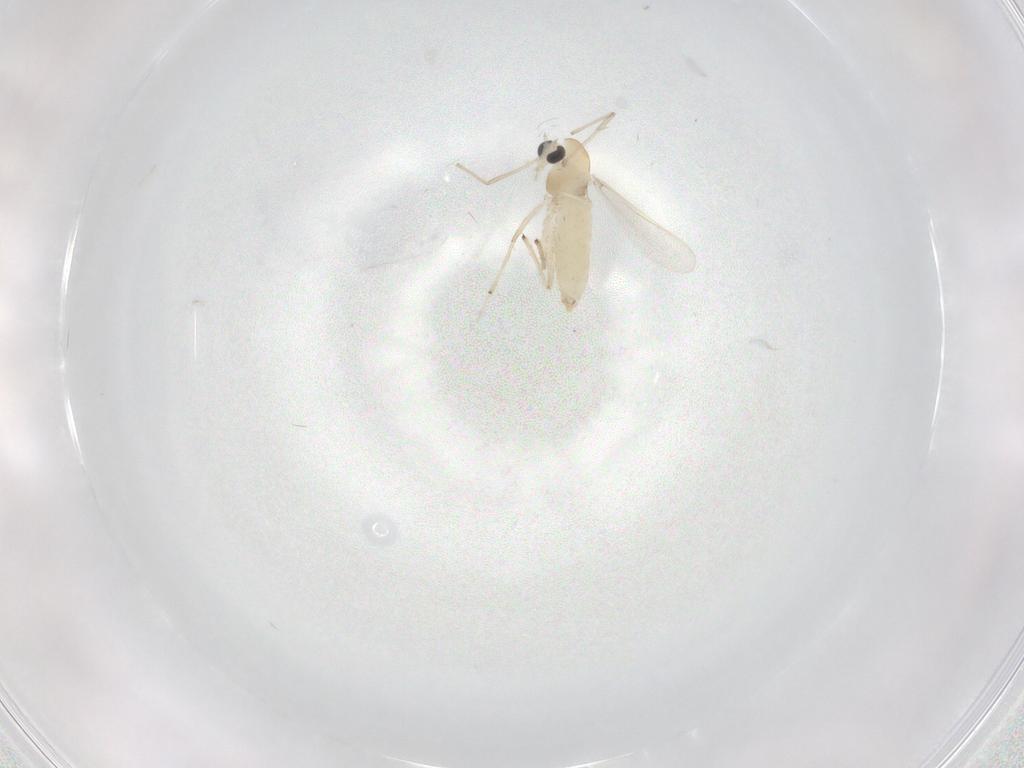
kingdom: Animalia
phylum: Arthropoda
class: Insecta
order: Diptera
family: Chironomidae
